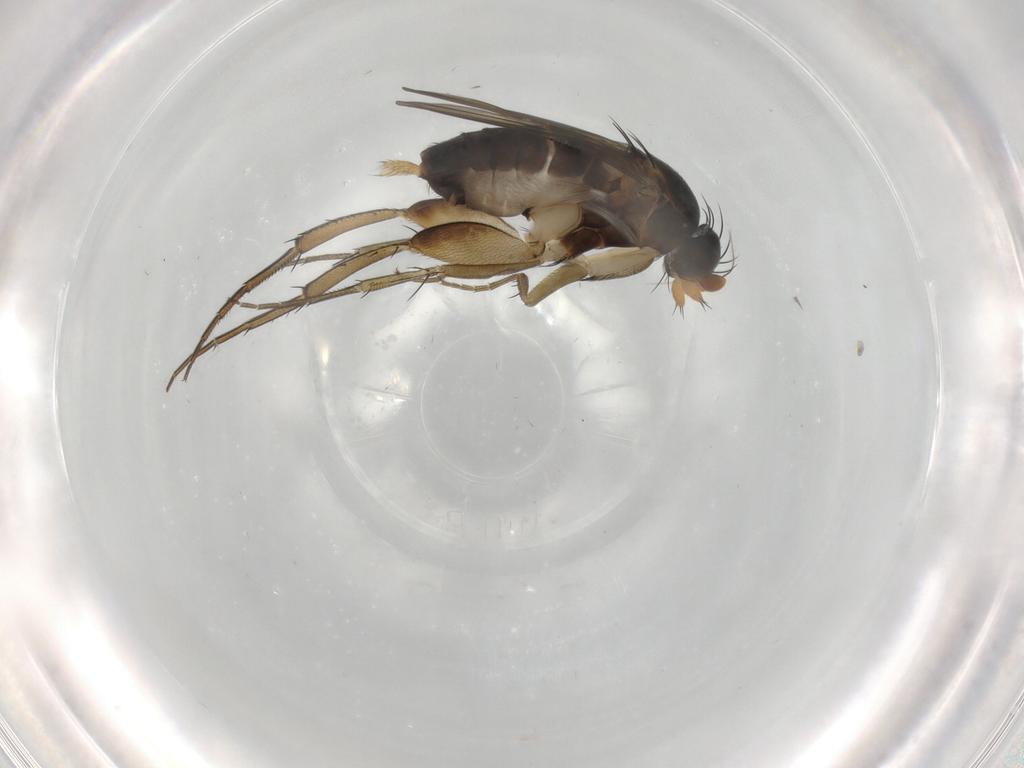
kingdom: Animalia
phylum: Arthropoda
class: Insecta
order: Diptera
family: Phoridae
